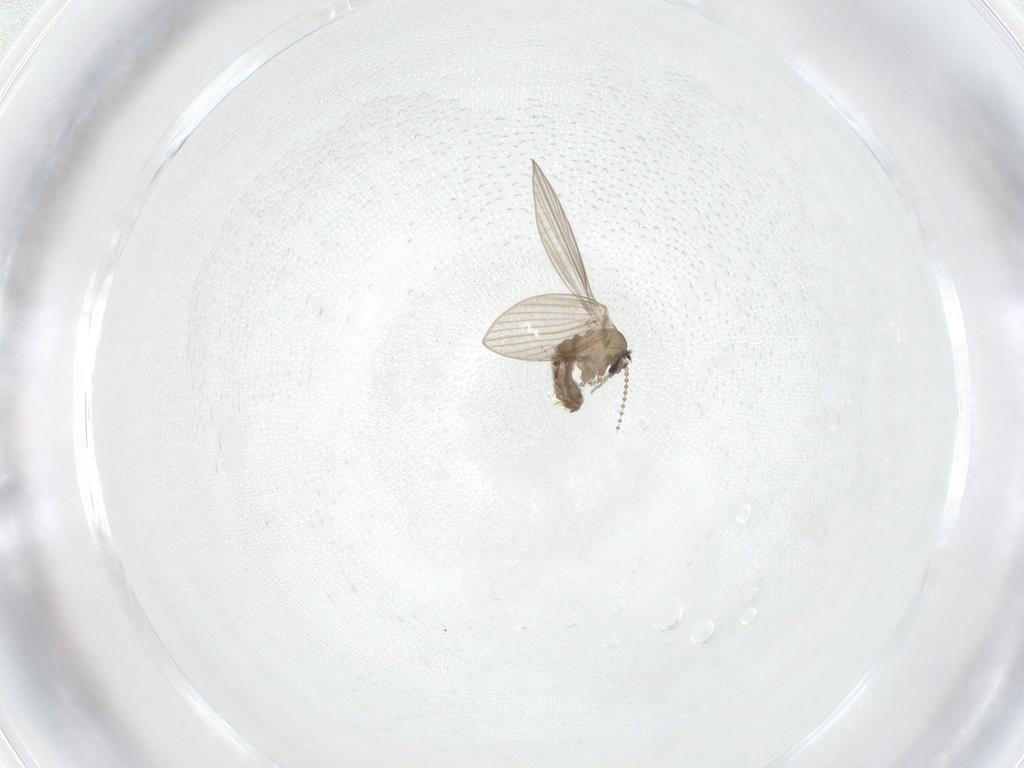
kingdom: Animalia
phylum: Arthropoda
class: Insecta
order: Diptera
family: Psychodidae
